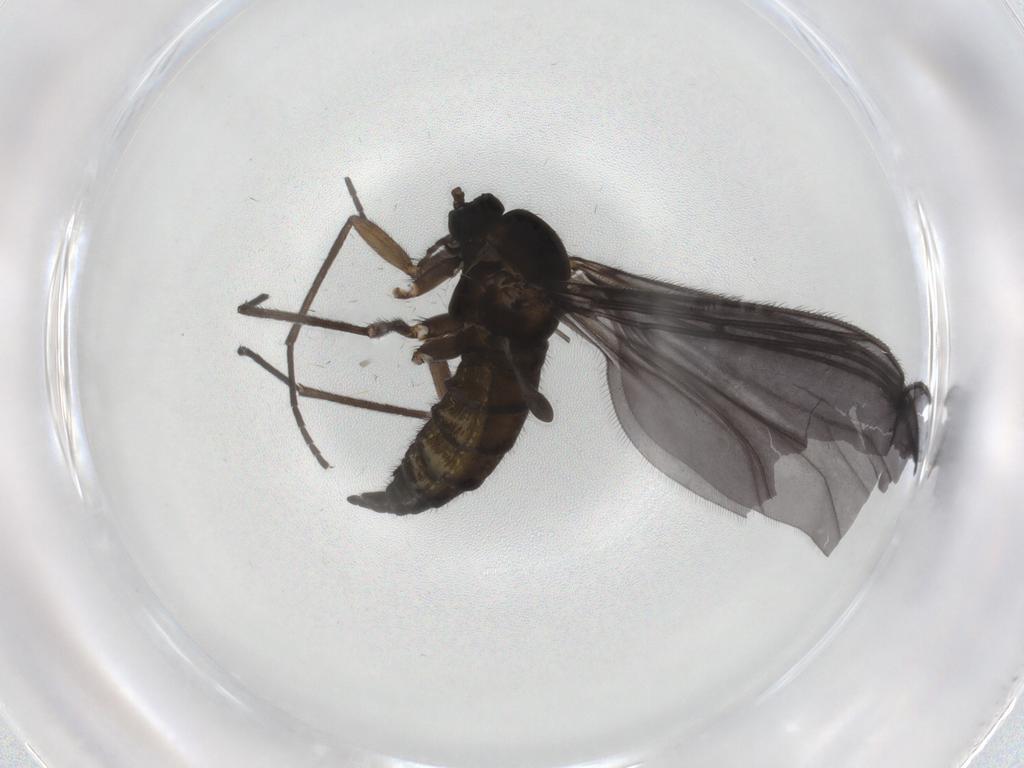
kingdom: Animalia
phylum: Arthropoda
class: Insecta
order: Diptera
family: Sciaridae
